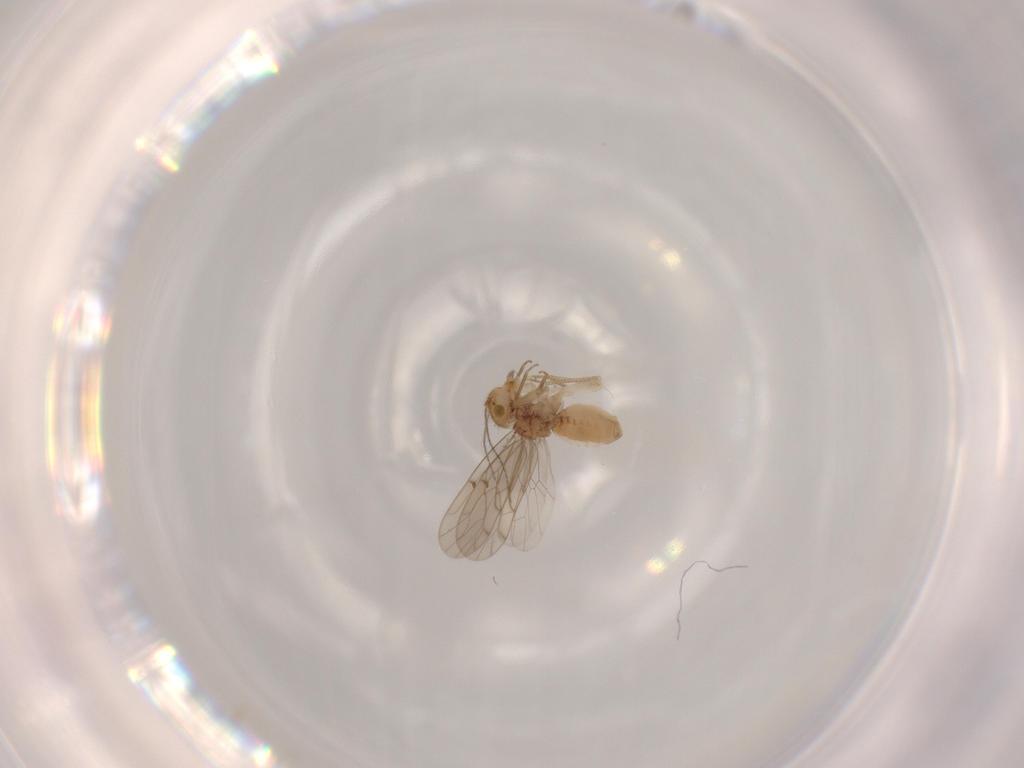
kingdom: Animalia
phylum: Arthropoda
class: Insecta
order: Psocodea
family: Ectopsocidae
